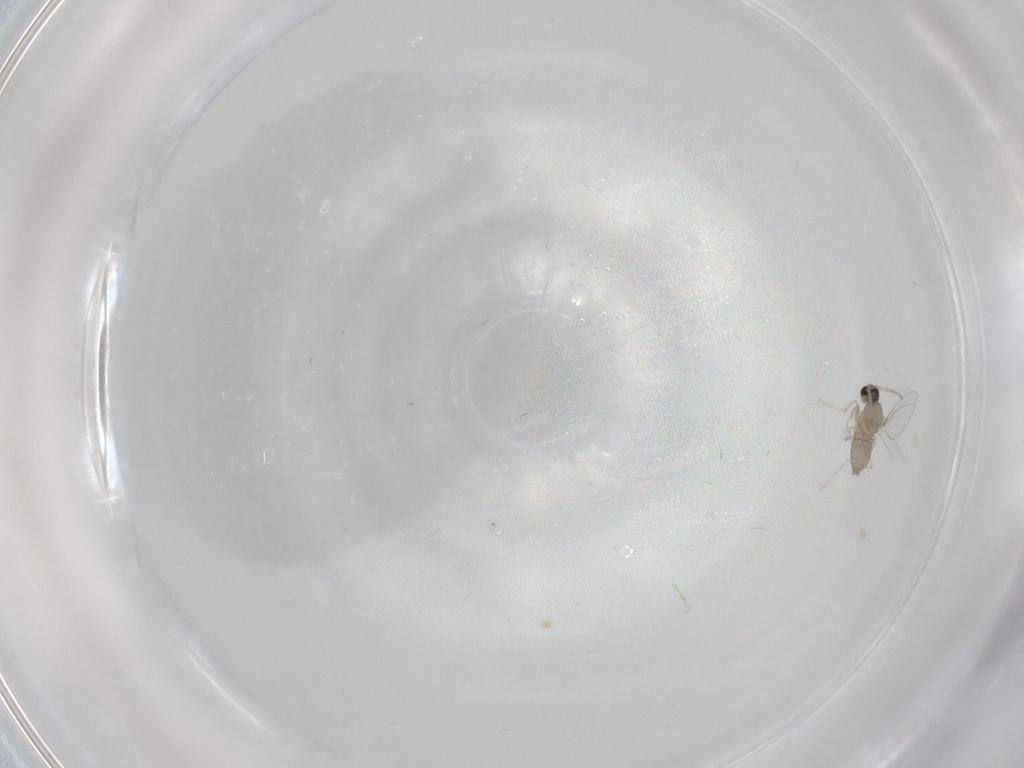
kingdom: Animalia
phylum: Arthropoda
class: Insecta
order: Diptera
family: Cecidomyiidae
